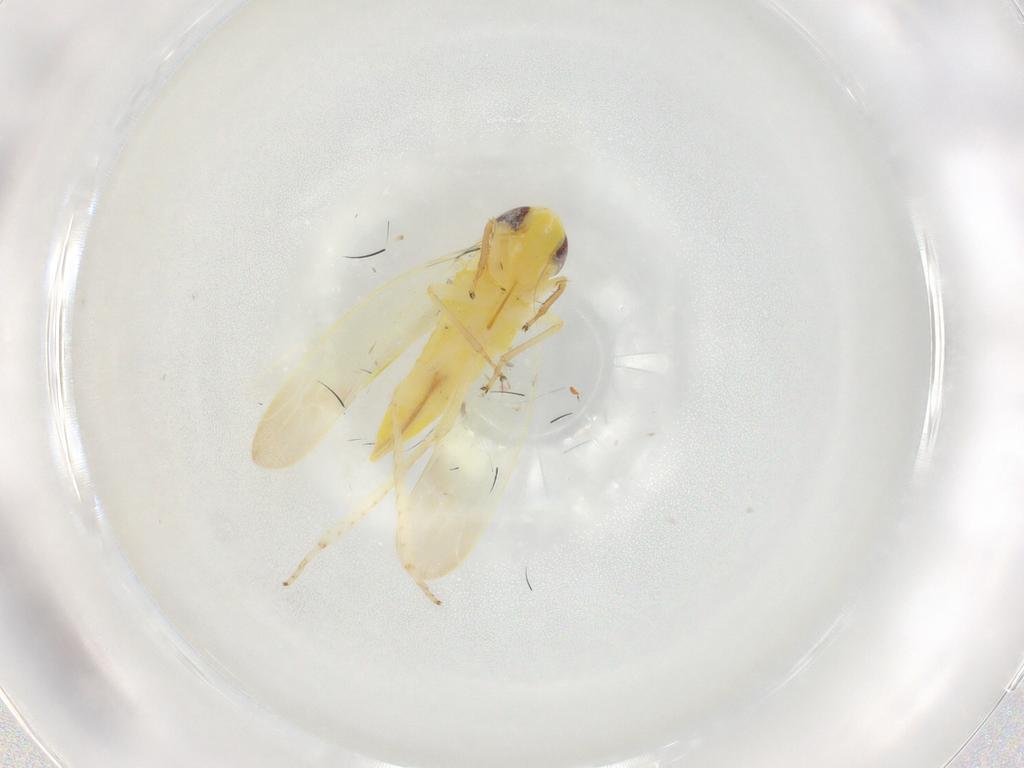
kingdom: Animalia
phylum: Arthropoda
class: Insecta
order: Hemiptera
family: Cicadellidae
